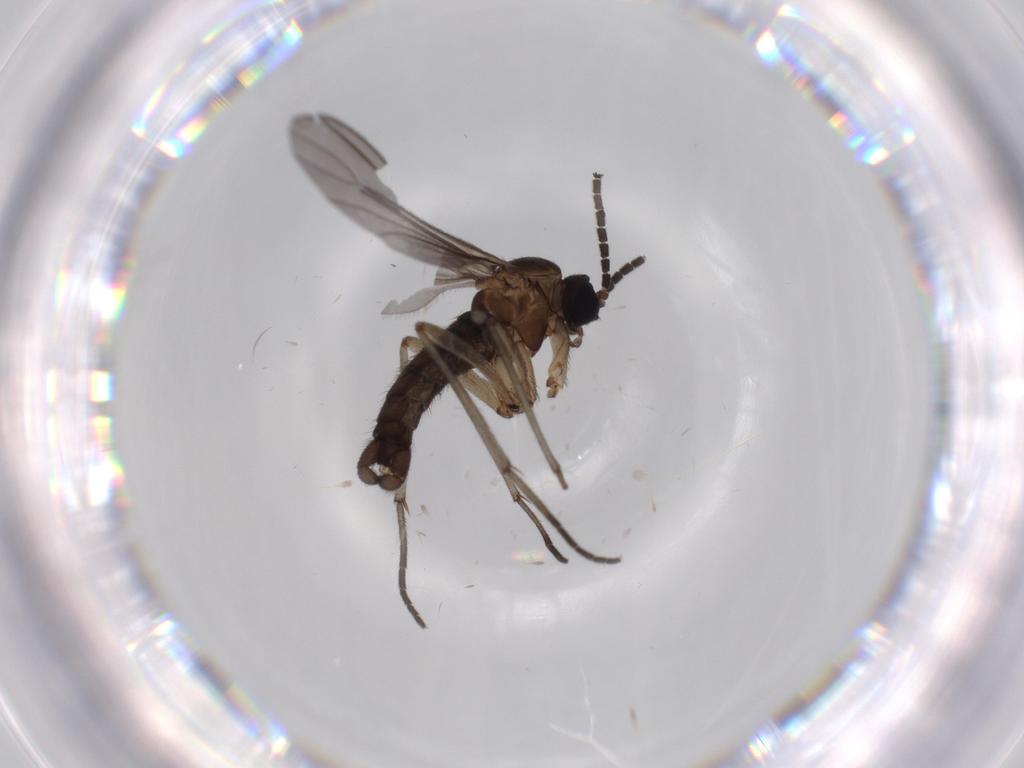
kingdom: Animalia
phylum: Arthropoda
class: Insecta
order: Diptera
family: Sciaridae
